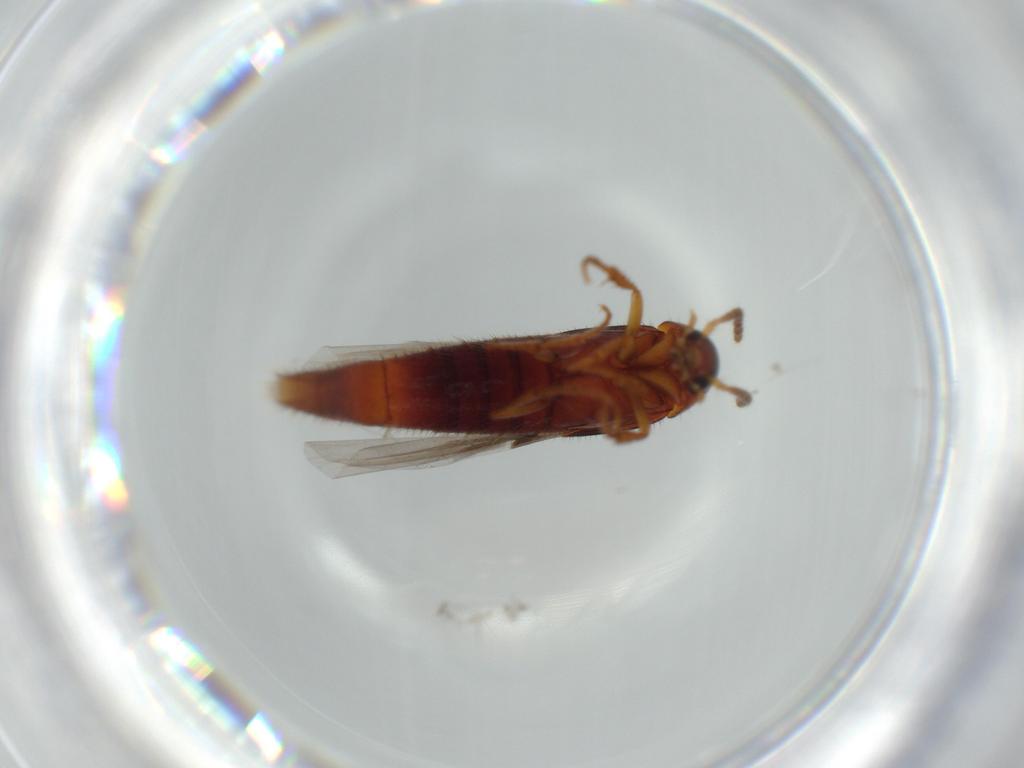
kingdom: Animalia
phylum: Arthropoda
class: Insecta
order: Coleoptera
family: Staphylinidae
